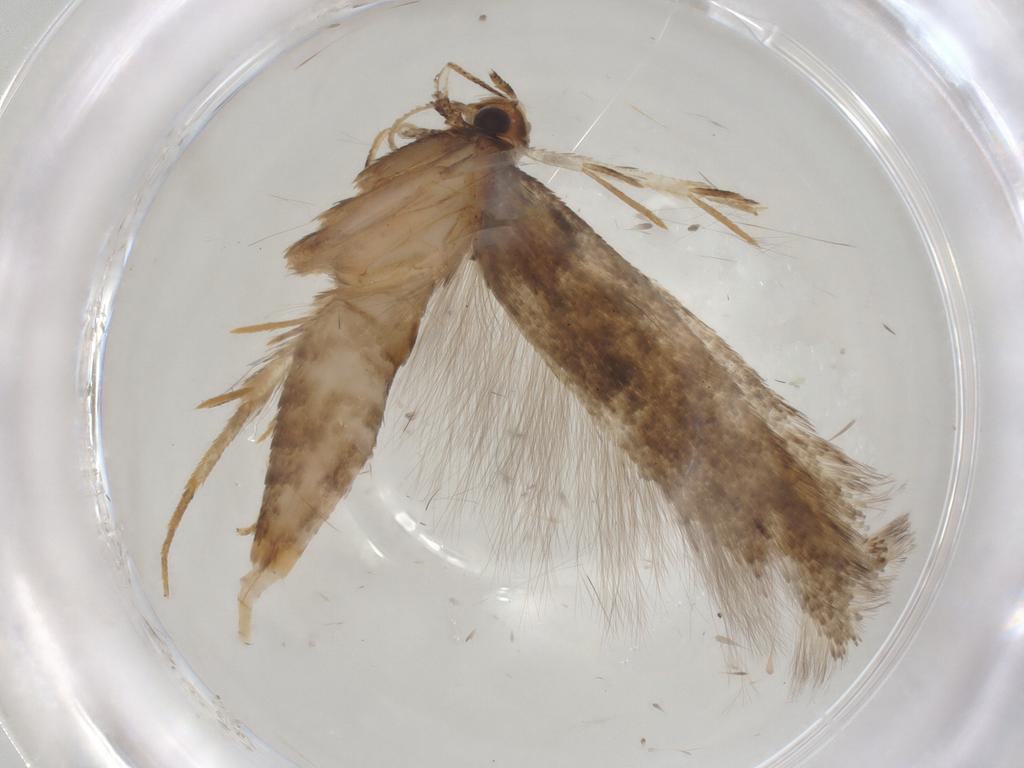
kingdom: Animalia
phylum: Arthropoda
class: Insecta
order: Lepidoptera
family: Gelechiidae
